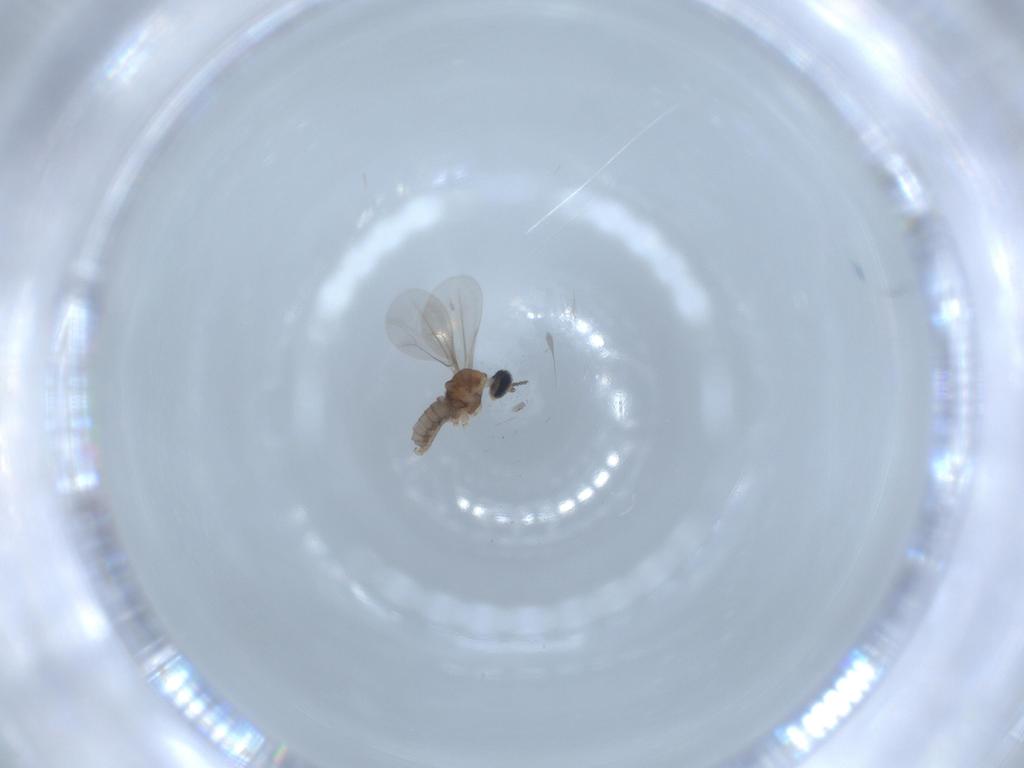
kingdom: Animalia
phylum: Arthropoda
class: Insecta
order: Diptera
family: Cecidomyiidae
